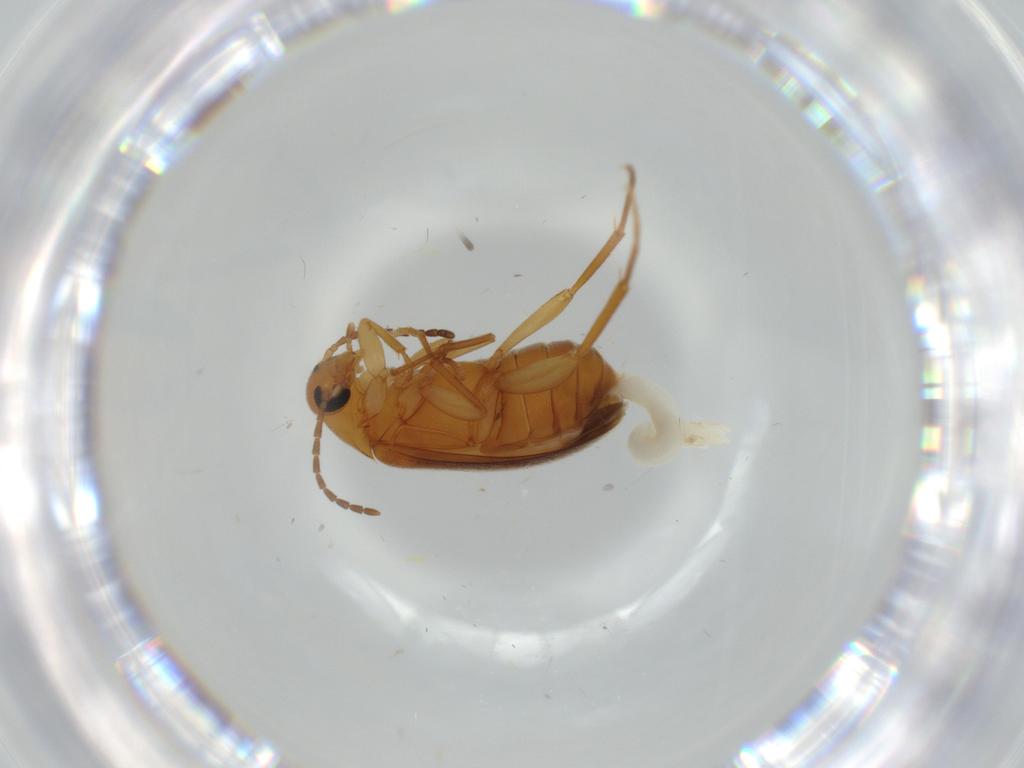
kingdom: Animalia
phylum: Arthropoda
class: Insecta
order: Coleoptera
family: Scraptiidae
